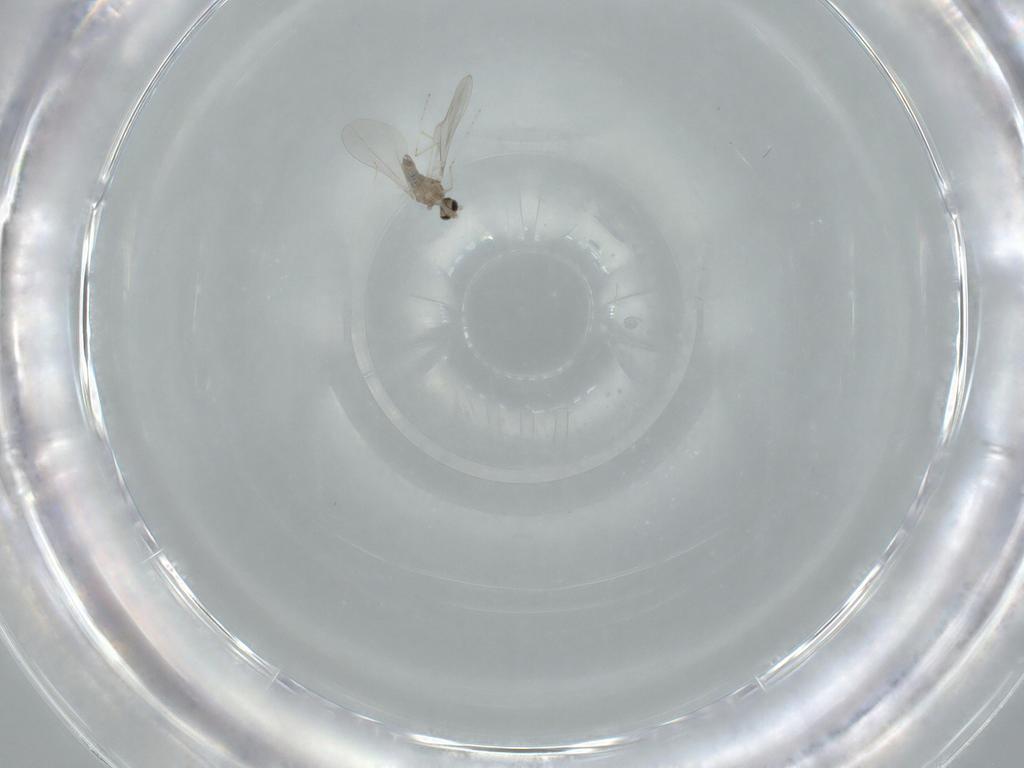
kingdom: Animalia
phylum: Arthropoda
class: Insecta
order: Diptera
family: Cecidomyiidae
